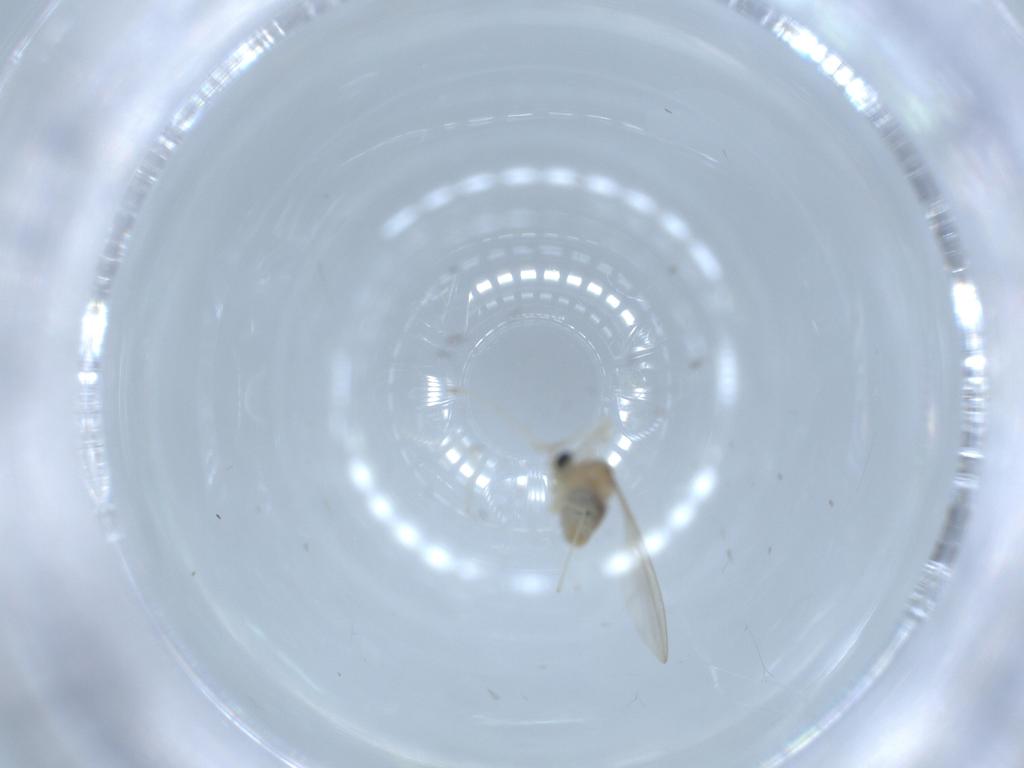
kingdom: Animalia
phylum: Arthropoda
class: Insecta
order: Diptera
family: Cecidomyiidae
